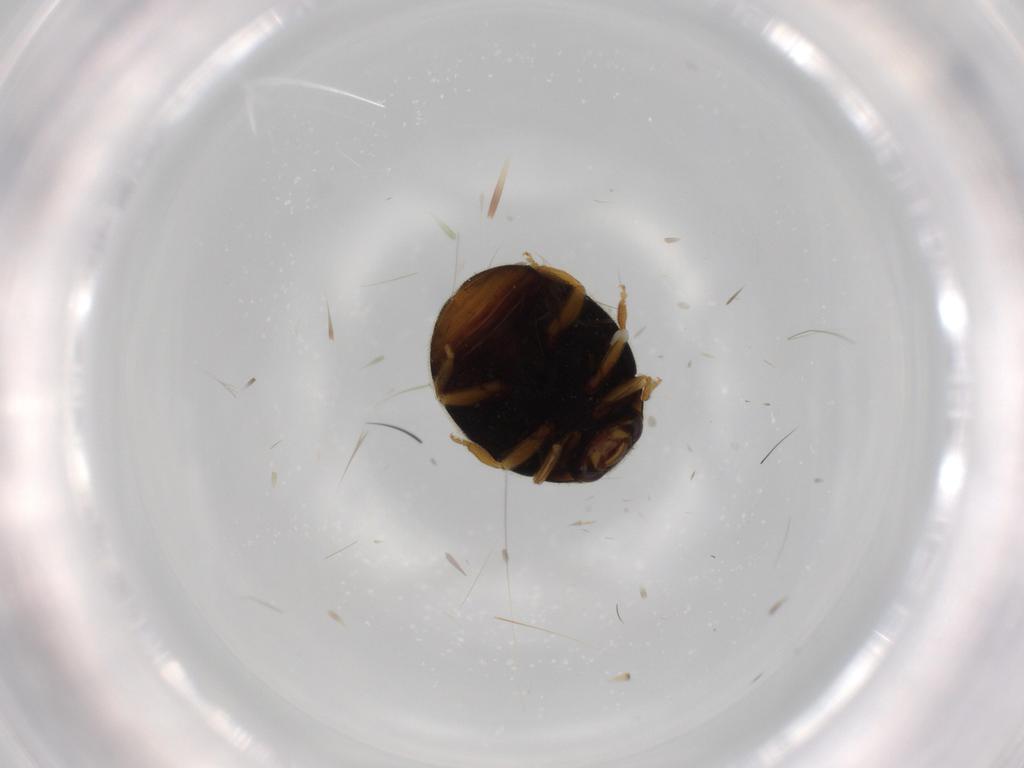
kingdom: Animalia
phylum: Arthropoda
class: Insecta
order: Coleoptera
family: Coccinellidae
